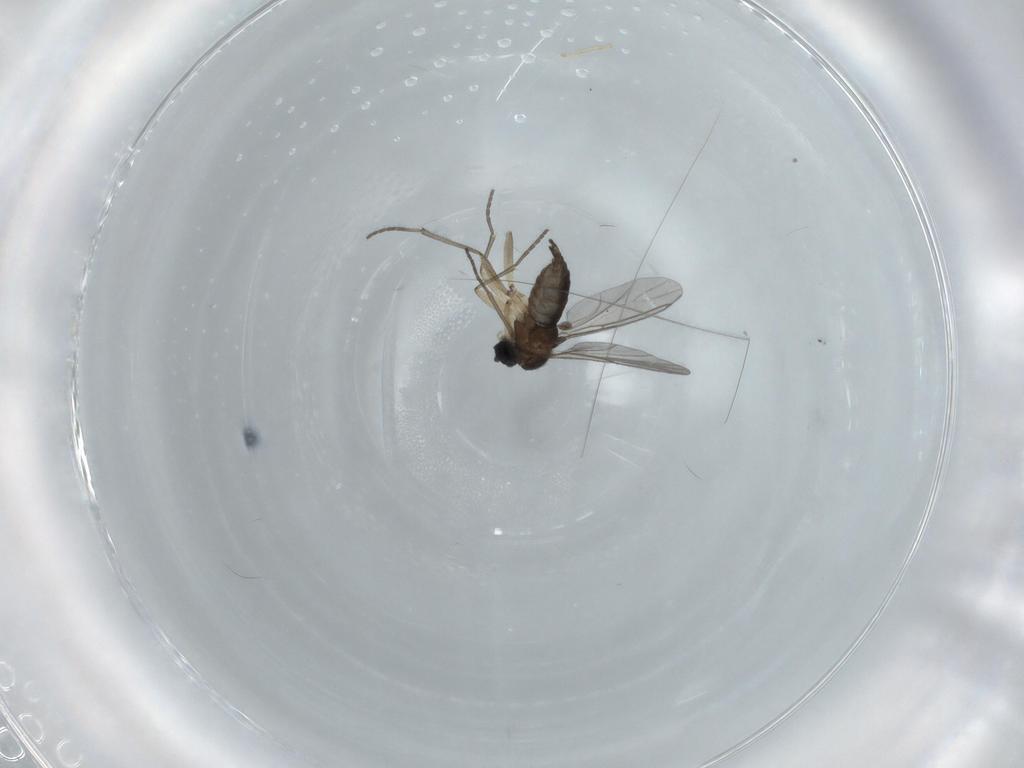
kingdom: Animalia
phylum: Arthropoda
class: Insecta
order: Diptera
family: Sciaridae
